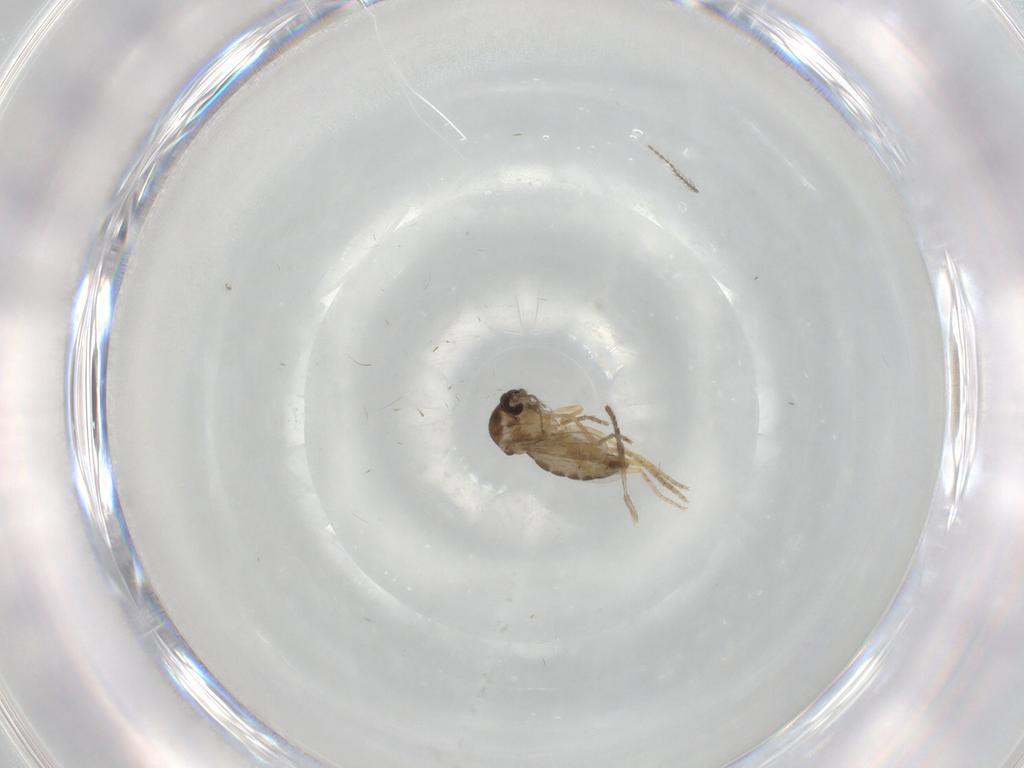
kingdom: Animalia
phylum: Arthropoda
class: Insecta
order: Diptera
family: Ceratopogonidae
